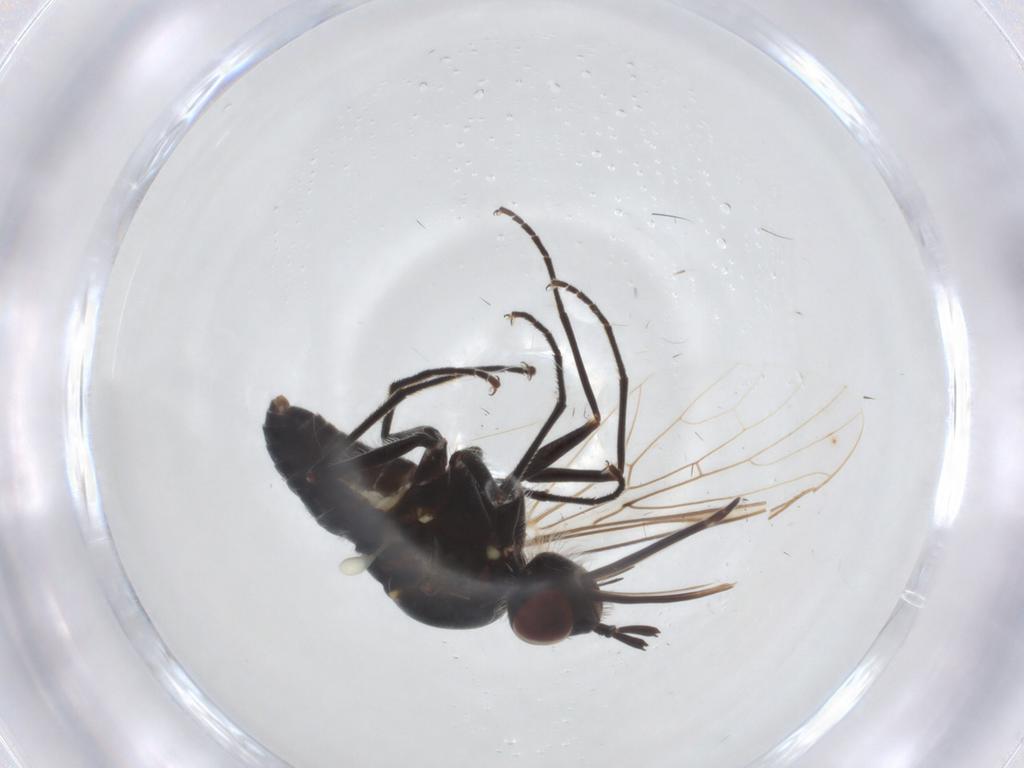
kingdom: Animalia
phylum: Arthropoda
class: Insecta
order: Diptera
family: Bombyliidae
